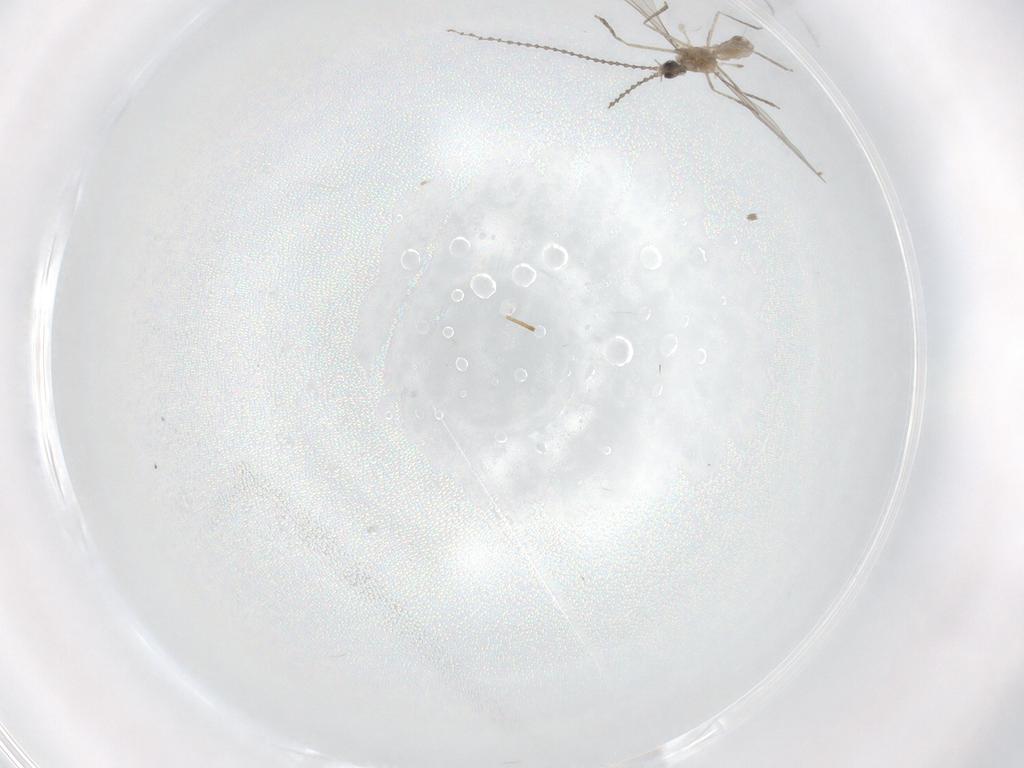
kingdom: Animalia
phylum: Arthropoda
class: Insecta
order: Diptera
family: Cecidomyiidae
